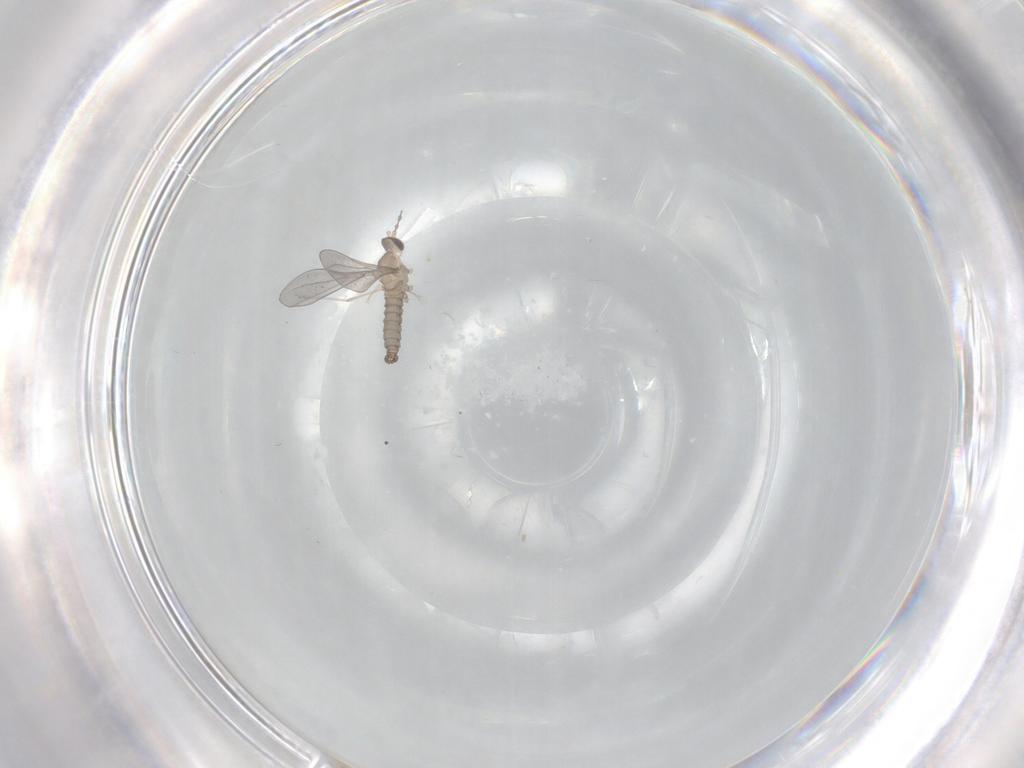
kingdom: Animalia
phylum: Arthropoda
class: Insecta
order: Diptera
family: Cecidomyiidae
